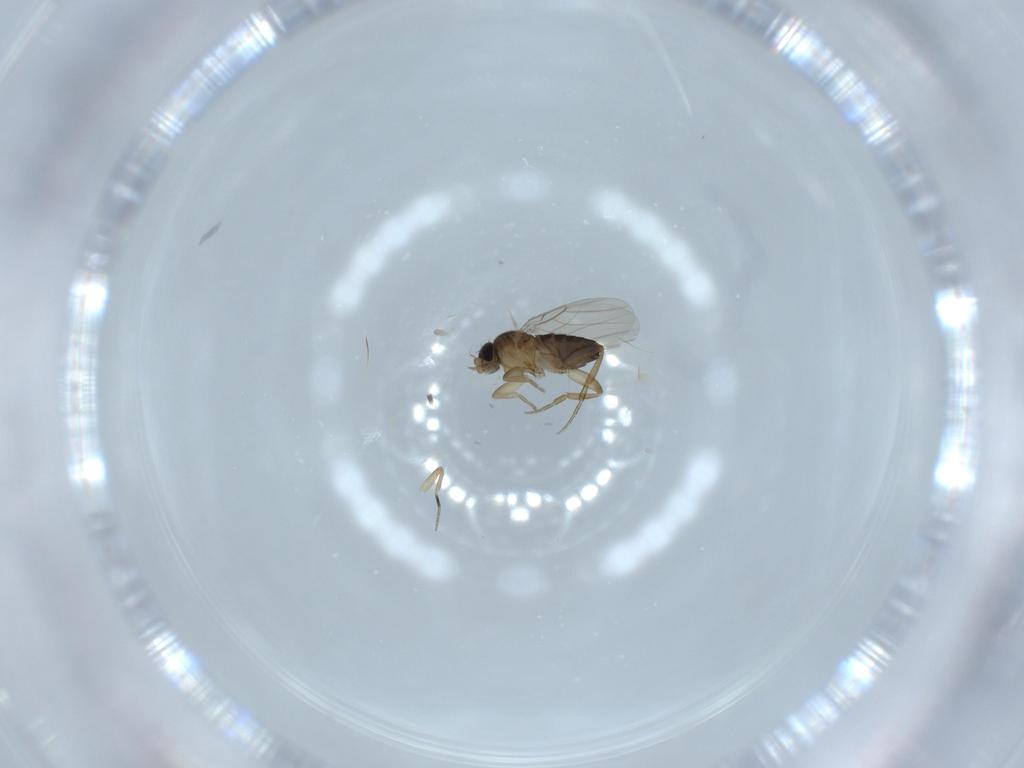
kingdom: Animalia
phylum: Arthropoda
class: Insecta
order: Diptera
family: Phoridae
